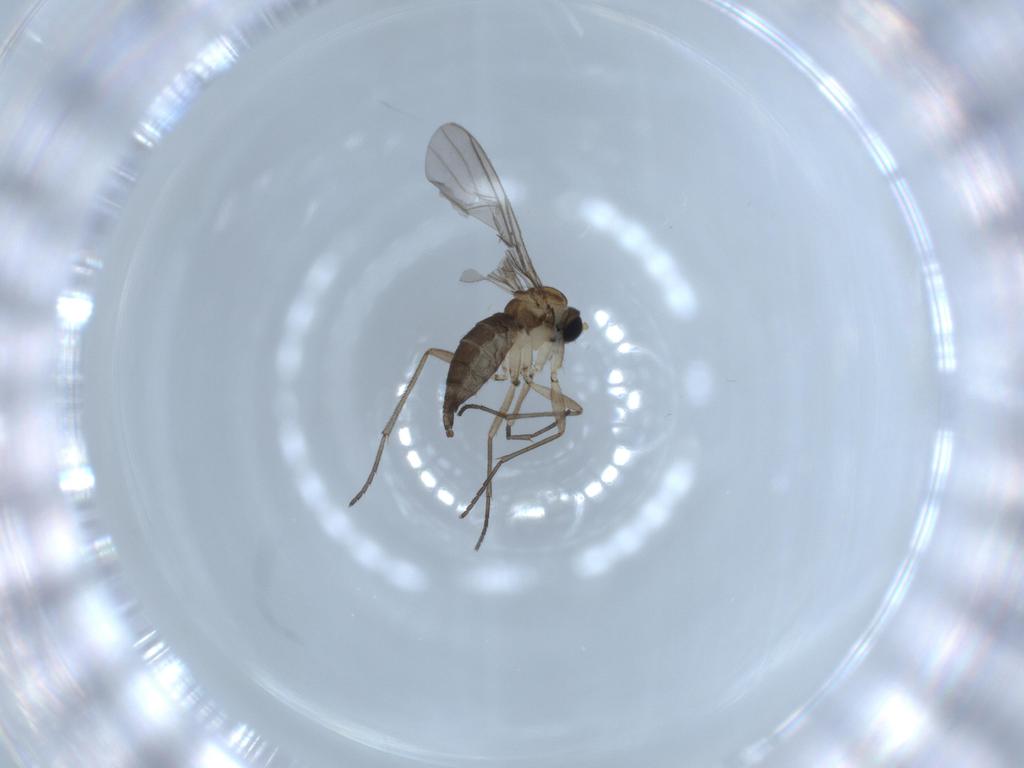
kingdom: Animalia
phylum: Arthropoda
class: Insecta
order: Diptera
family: Sciaridae
